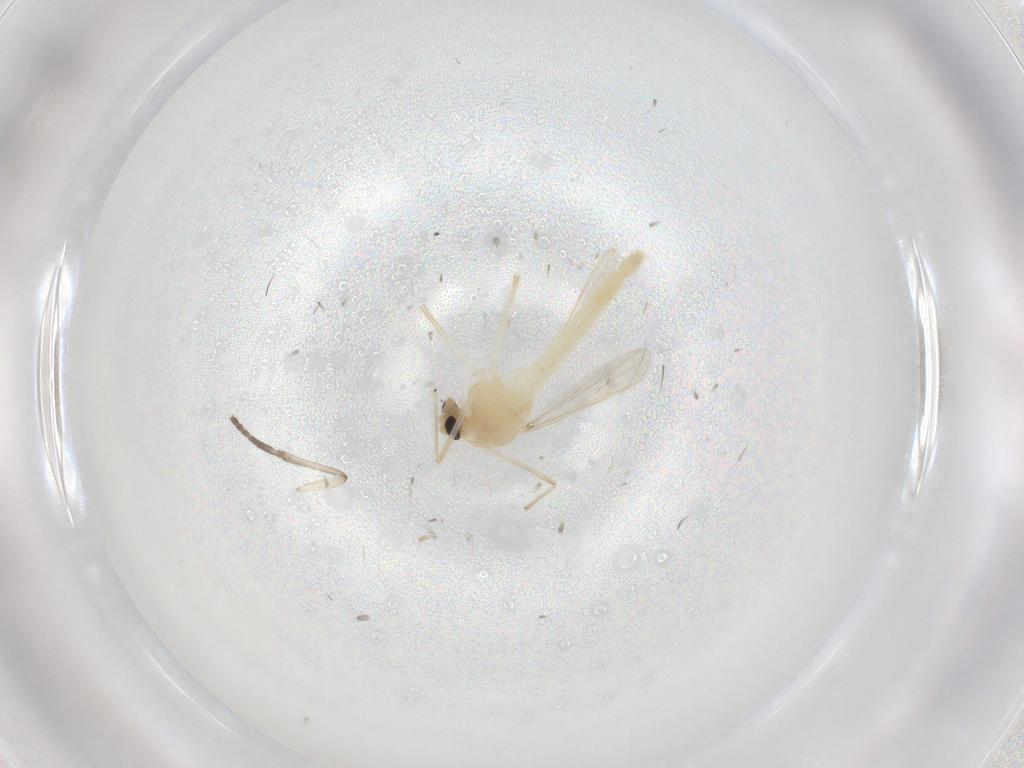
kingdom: Animalia
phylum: Arthropoda
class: Insecta
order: Diptera
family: Chironomidae
